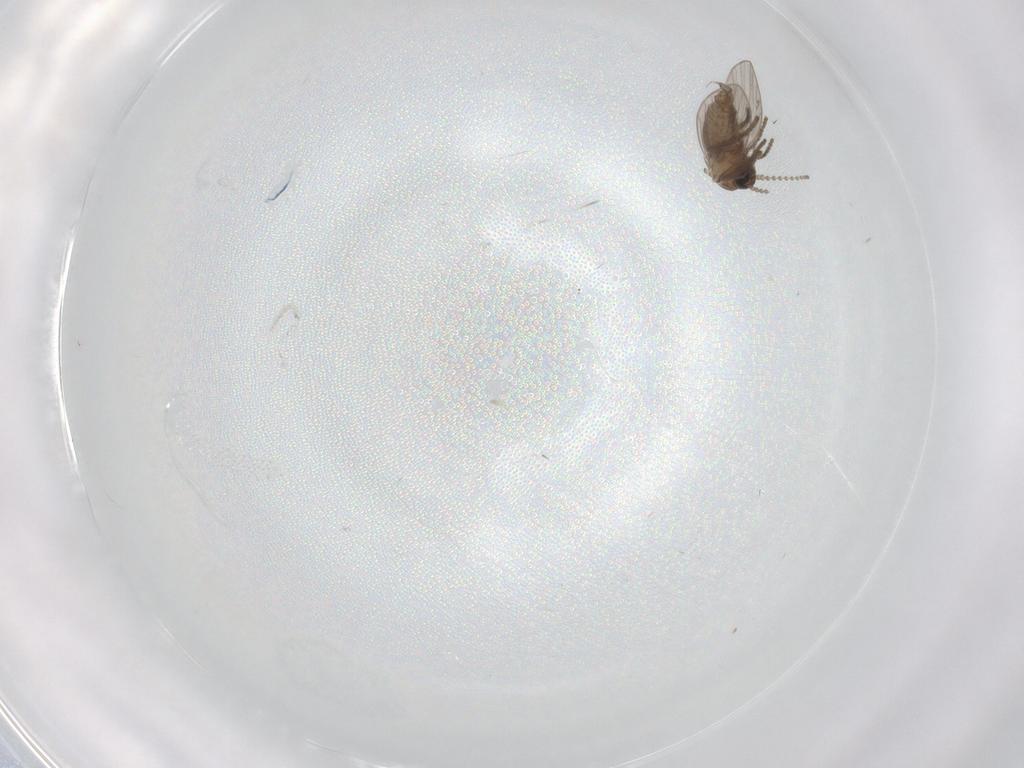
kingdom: Animalia
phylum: Arthropoda
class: Insecta
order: Diptera
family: Psychodidae
